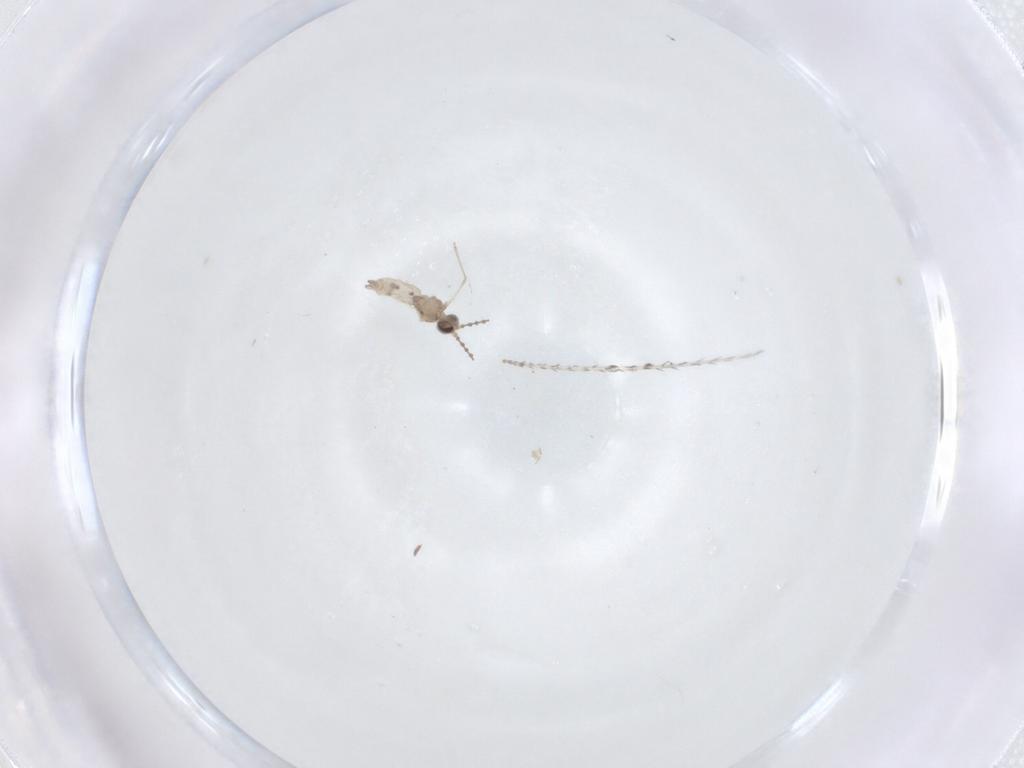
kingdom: Animalia
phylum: Arthropoda
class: Insecta
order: Diptera
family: Cecidomyiidae
